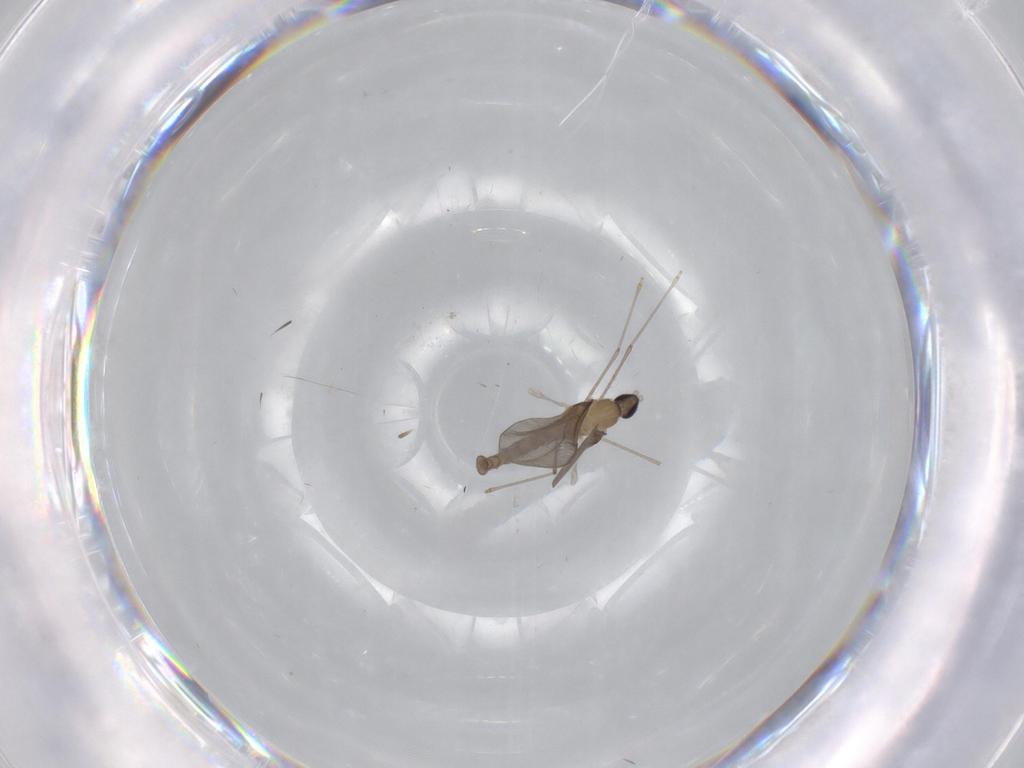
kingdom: Animalia
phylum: Arthropoda
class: Insecta
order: Diptera
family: Cecidomyiidae
